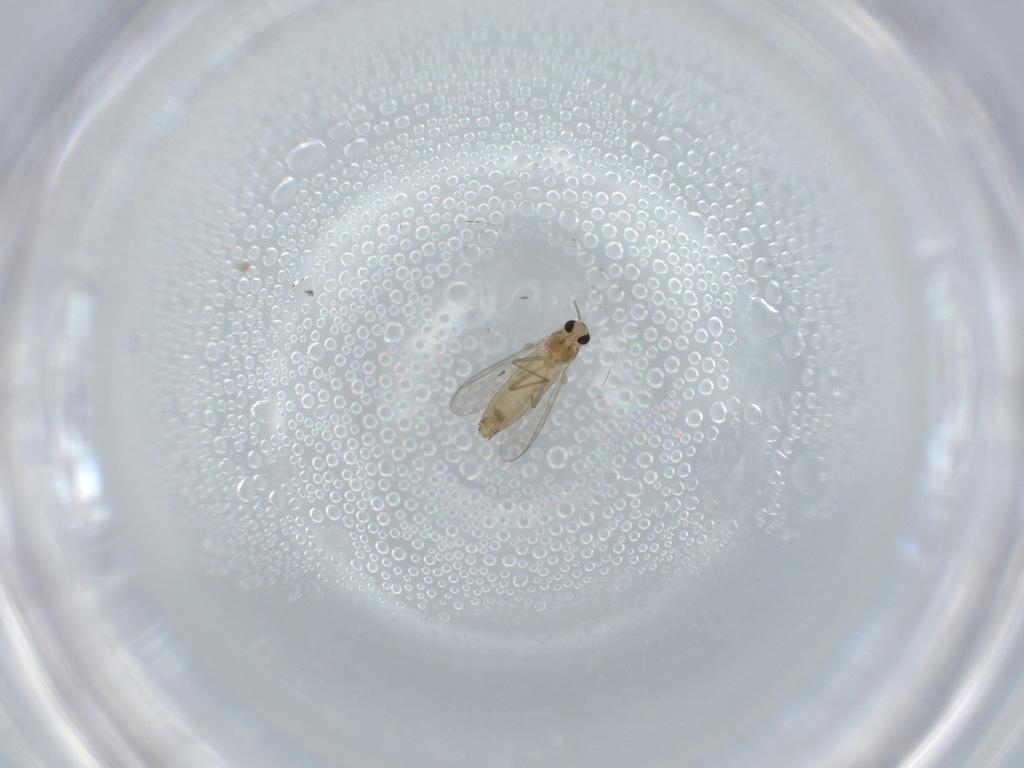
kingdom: Animalia
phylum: Arthropoda
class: Insecta
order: Diptera
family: Chironomidae
